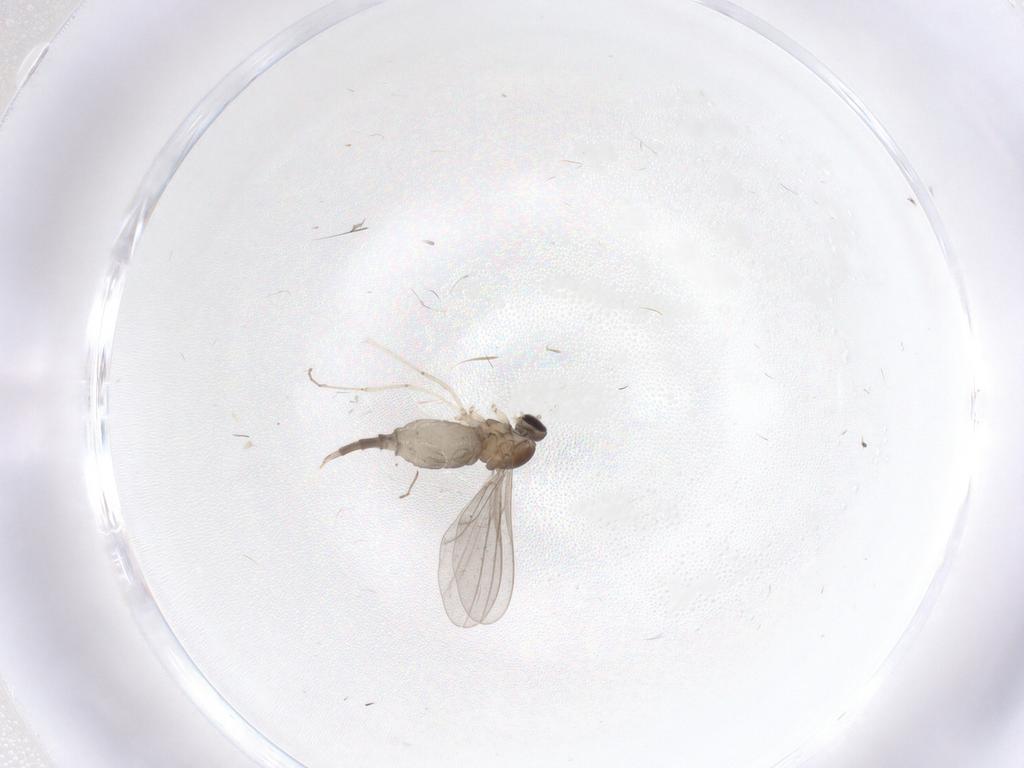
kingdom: Animalia
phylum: Arthropoda
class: Insecta
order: Diptera
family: Cecidomyiidae
